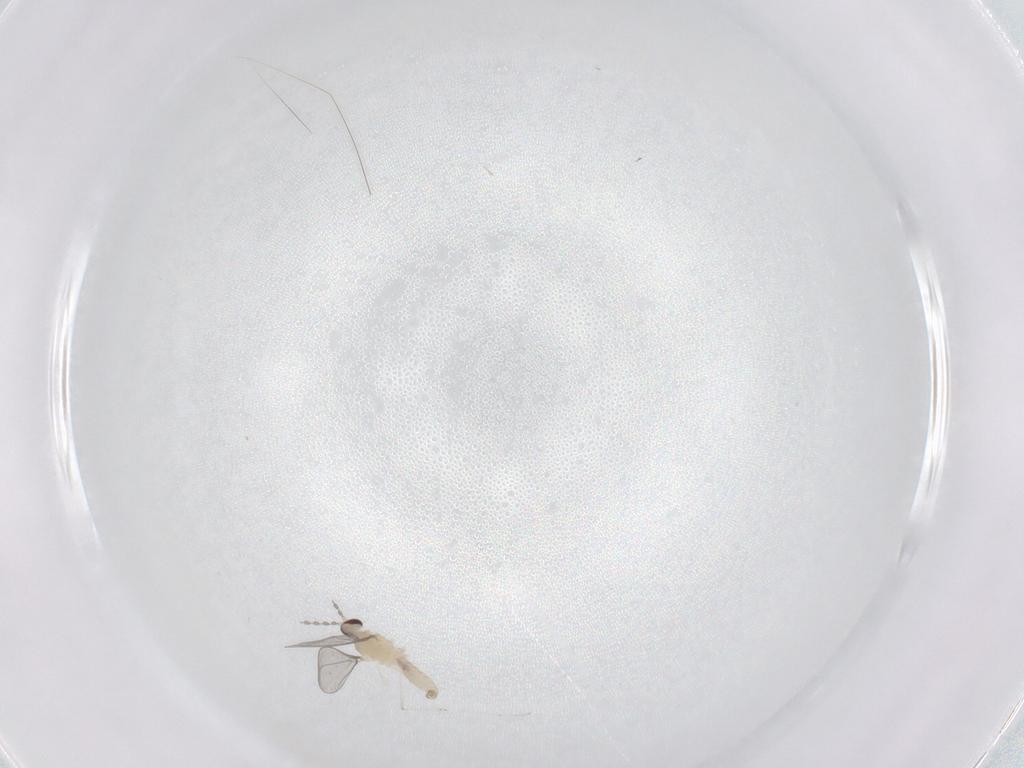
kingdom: Animalia
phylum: Arthropoda
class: Insecta
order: Diptera
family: Cecidomyiidae
